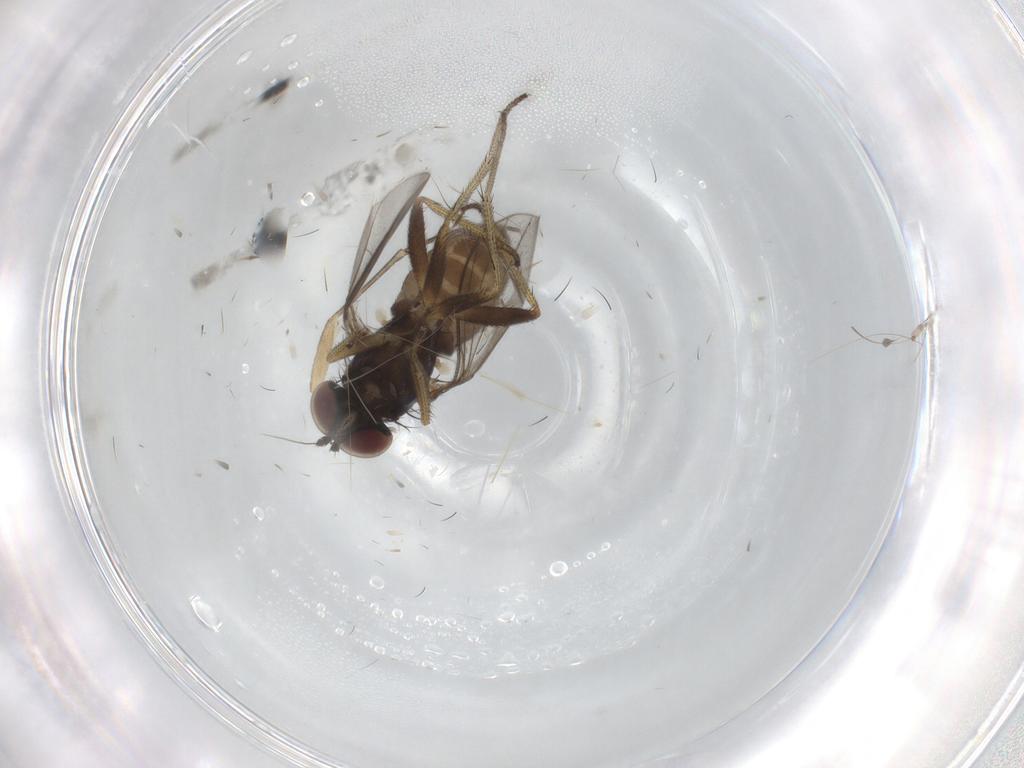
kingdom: Animalia
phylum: Arthropoda
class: Insecta
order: Diptera
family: Dolichopodidae
